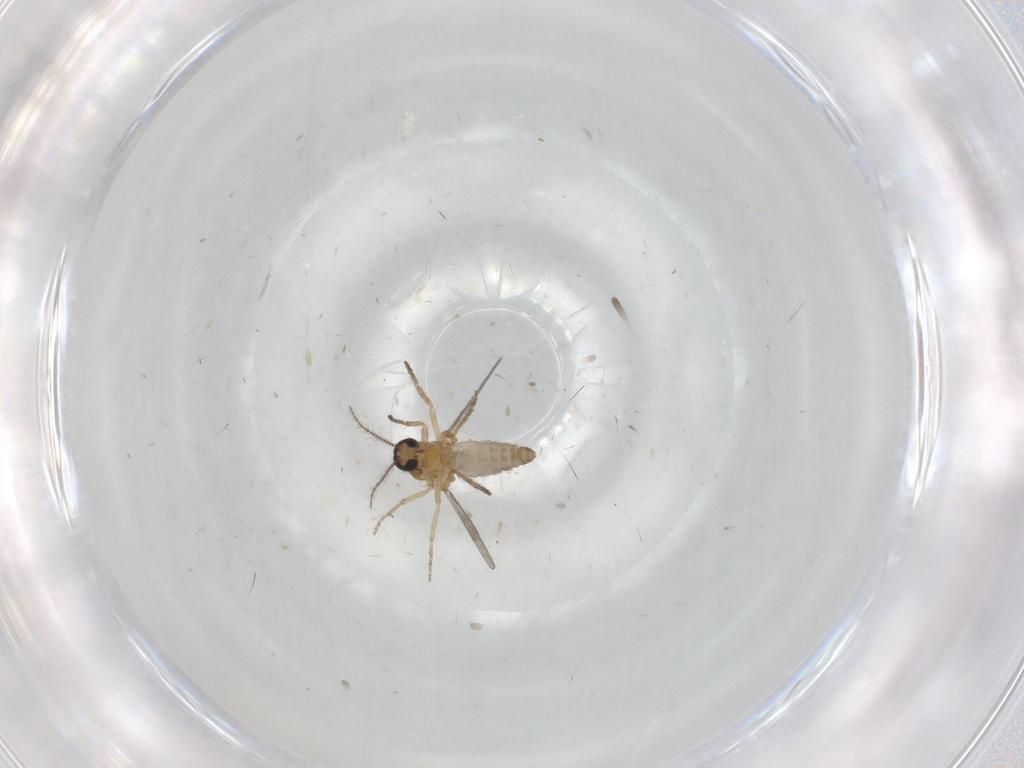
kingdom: Animalia
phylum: Arthropoda
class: Insecta
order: Diptera
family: Ceratopogonidae
